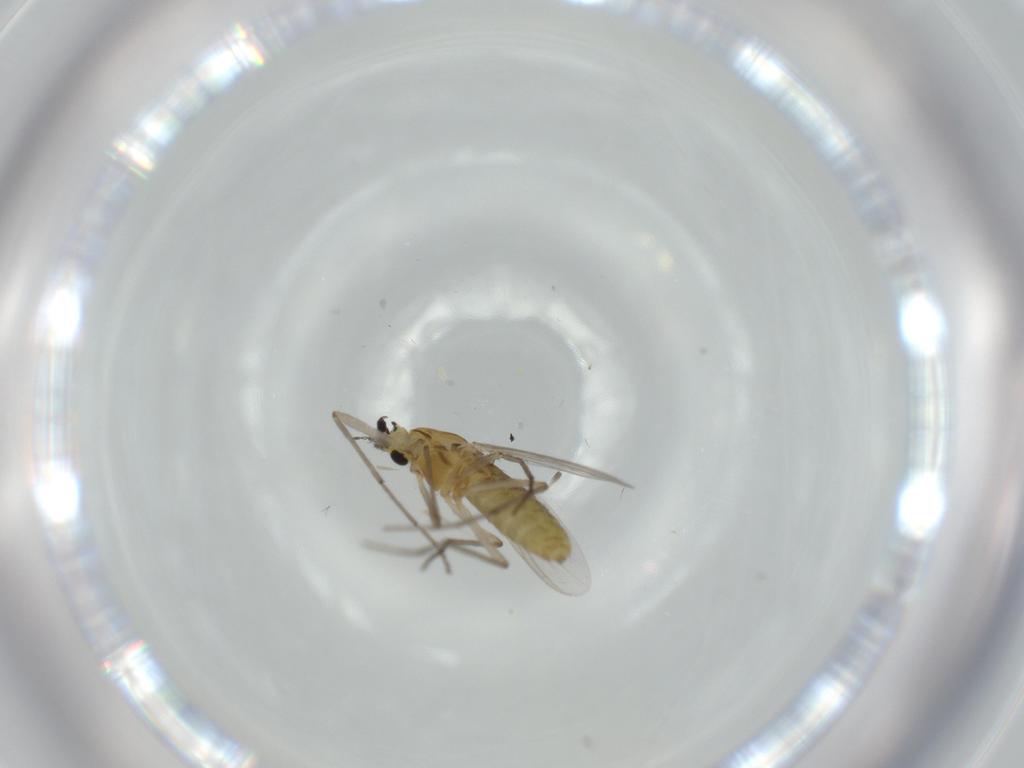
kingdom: Animalia
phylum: Arthropoda
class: Insecta
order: Diptera
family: Chironomidae
